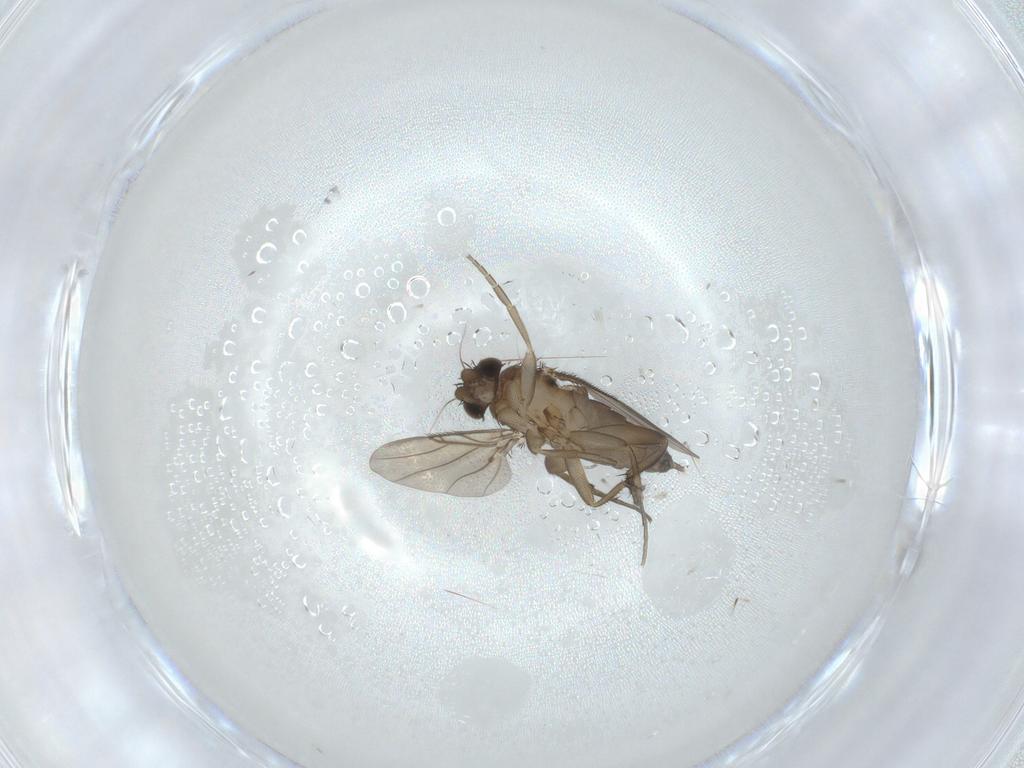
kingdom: Animalia
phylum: Arthropoda
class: Insecta
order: Diptera
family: Phoridae
